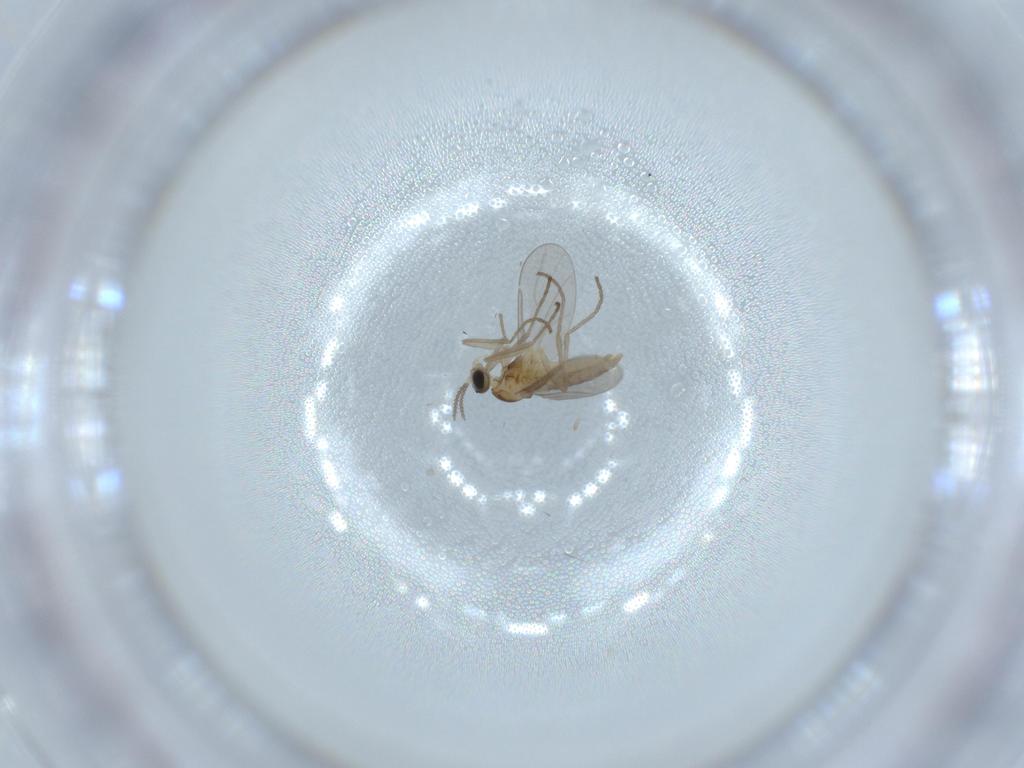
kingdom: Animalia
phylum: Arthropoda
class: Insecta
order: Diptera
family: Cecidomyiidae
